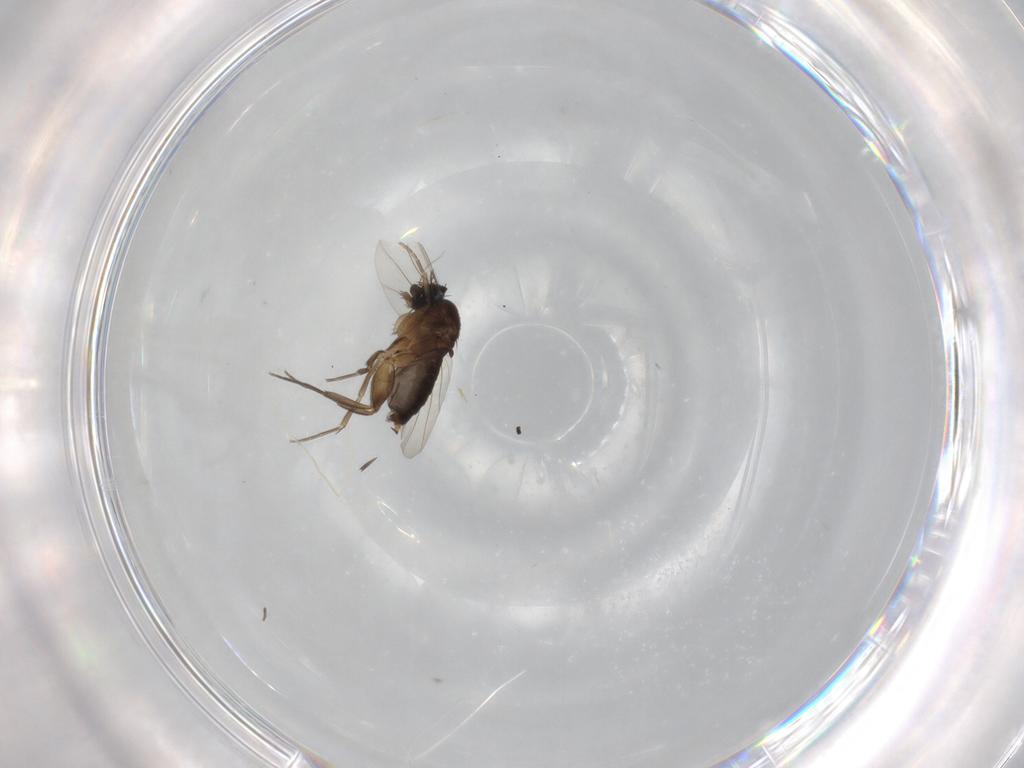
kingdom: Animalia
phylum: Arthropoda
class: Insecta
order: Diptera
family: Phoridae
